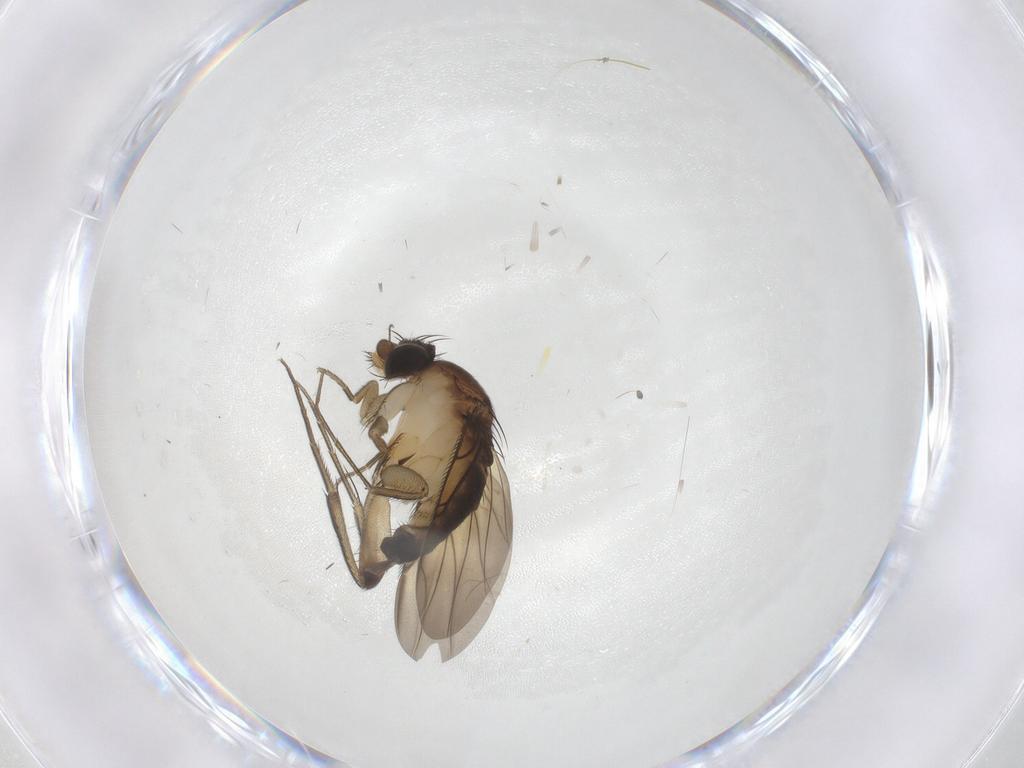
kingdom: Animalia
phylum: Arthropoda
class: Insecta
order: Diptera
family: Phoridae
